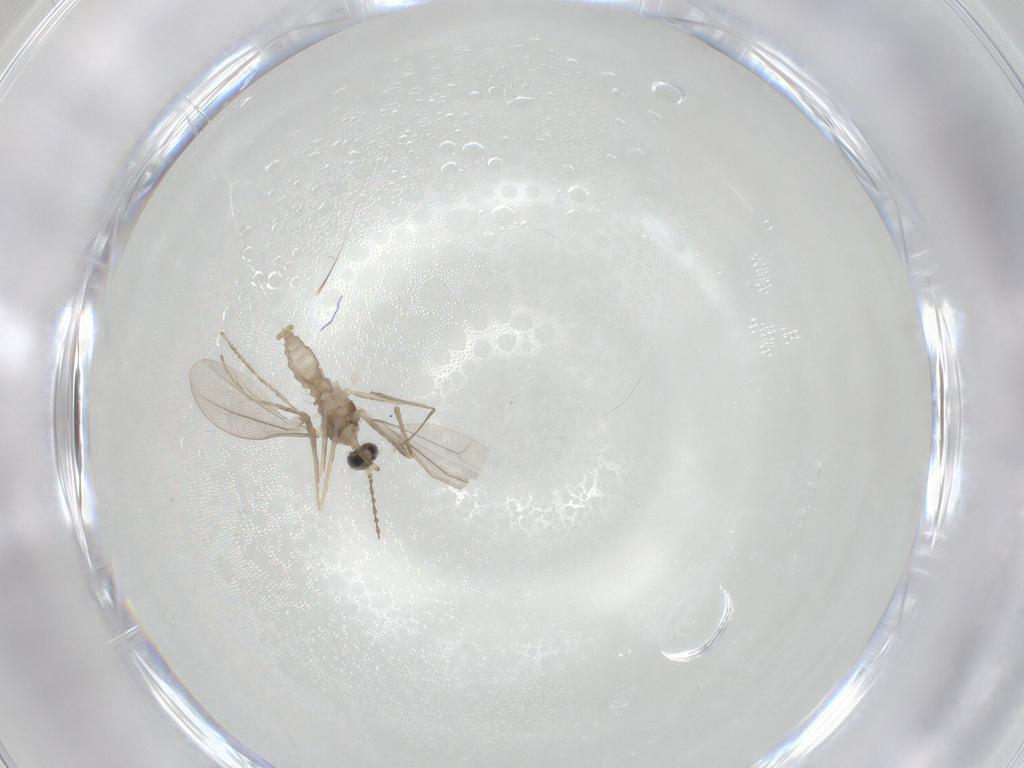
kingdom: Animalia
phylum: Arthropoda
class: Insecta
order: Diptera
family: Cecidomyiidae
